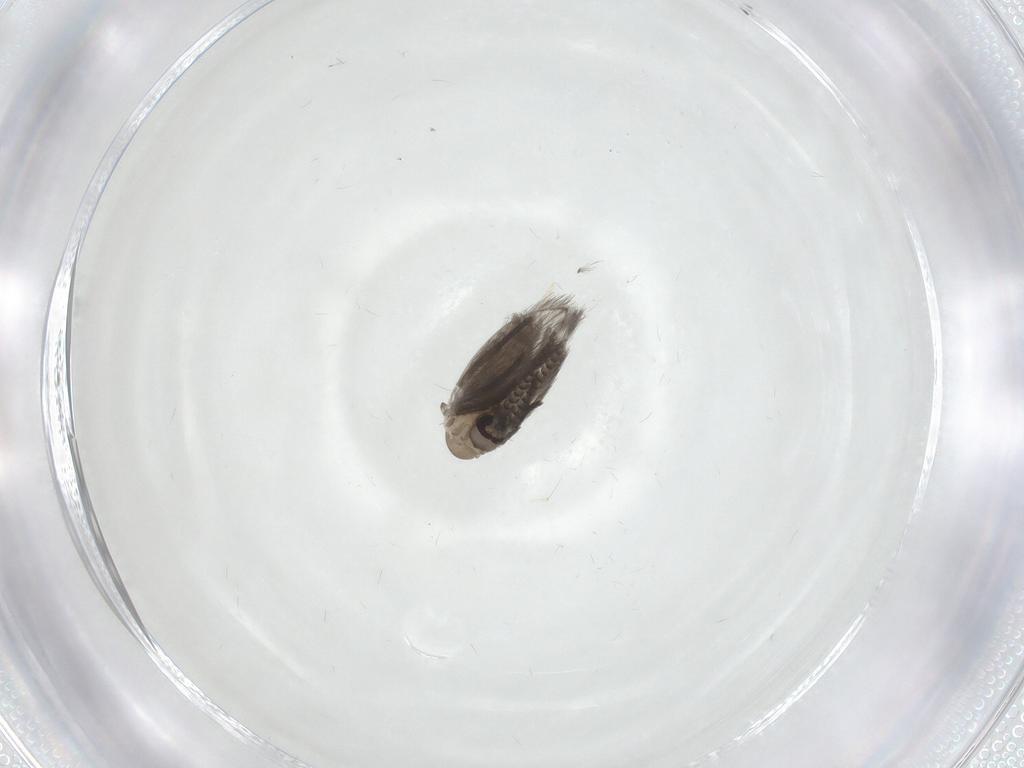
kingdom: Animalia
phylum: Arthropoda
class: Insecta
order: Diptera
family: Psychodidae
